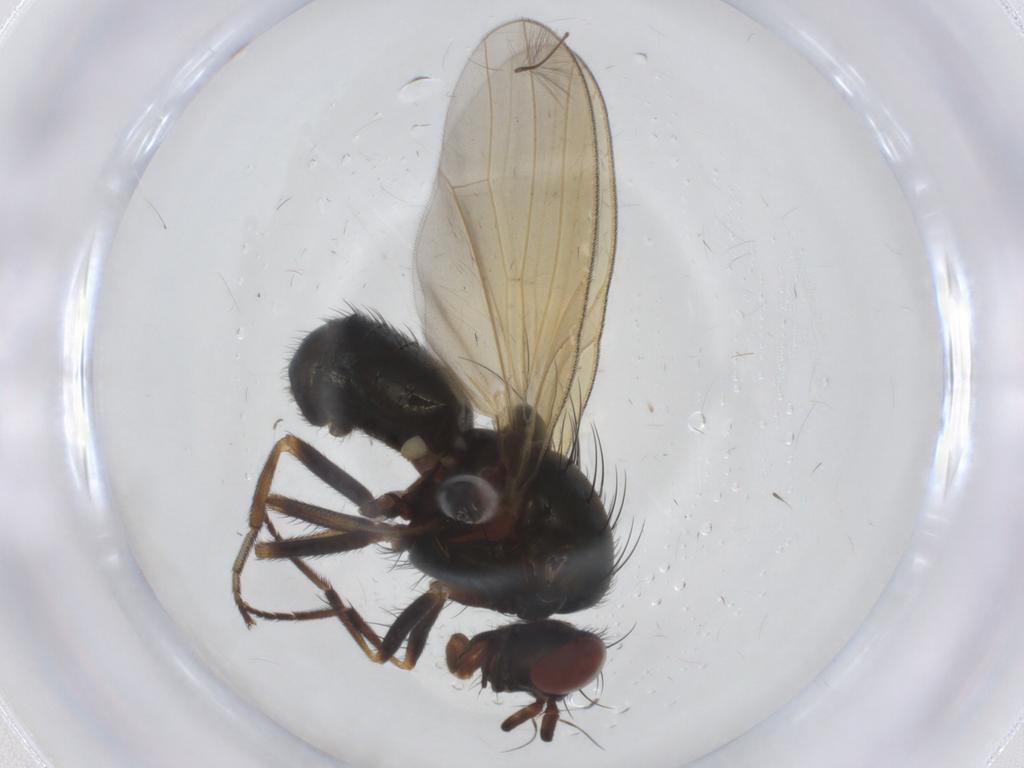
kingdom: Animalia
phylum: Arthropoda
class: Insecta
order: Diptera
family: Lauxaniidae
